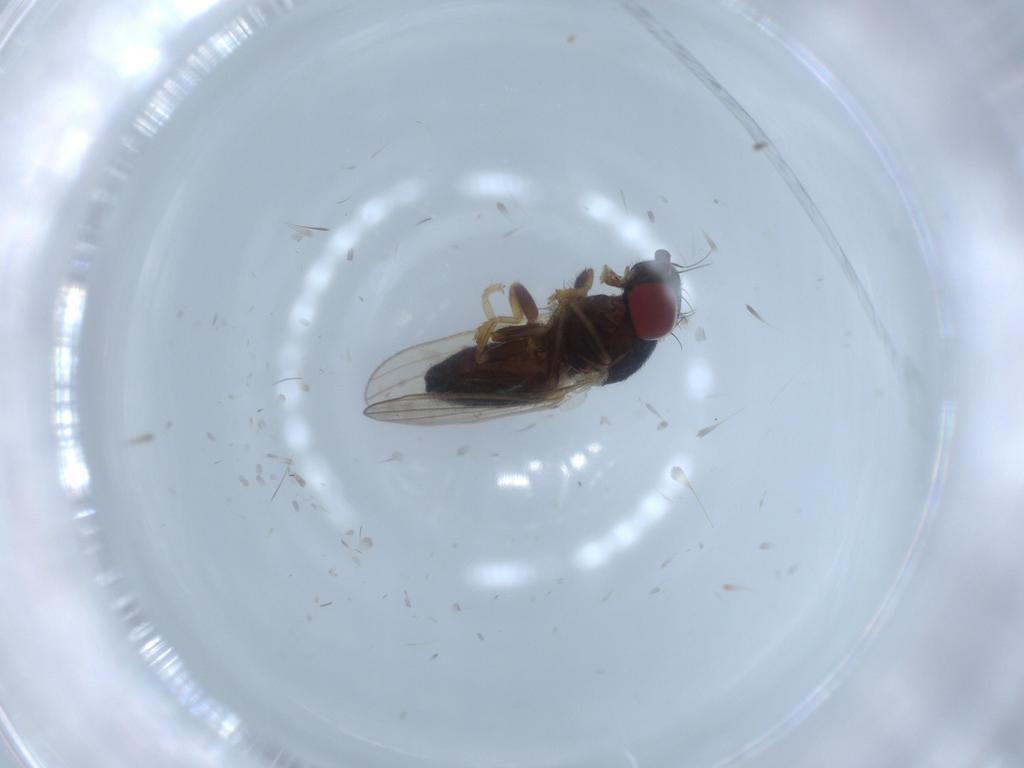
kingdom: Animalia
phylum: Arthropoda
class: Insecta
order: Diptera
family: Chamaemyiidae
